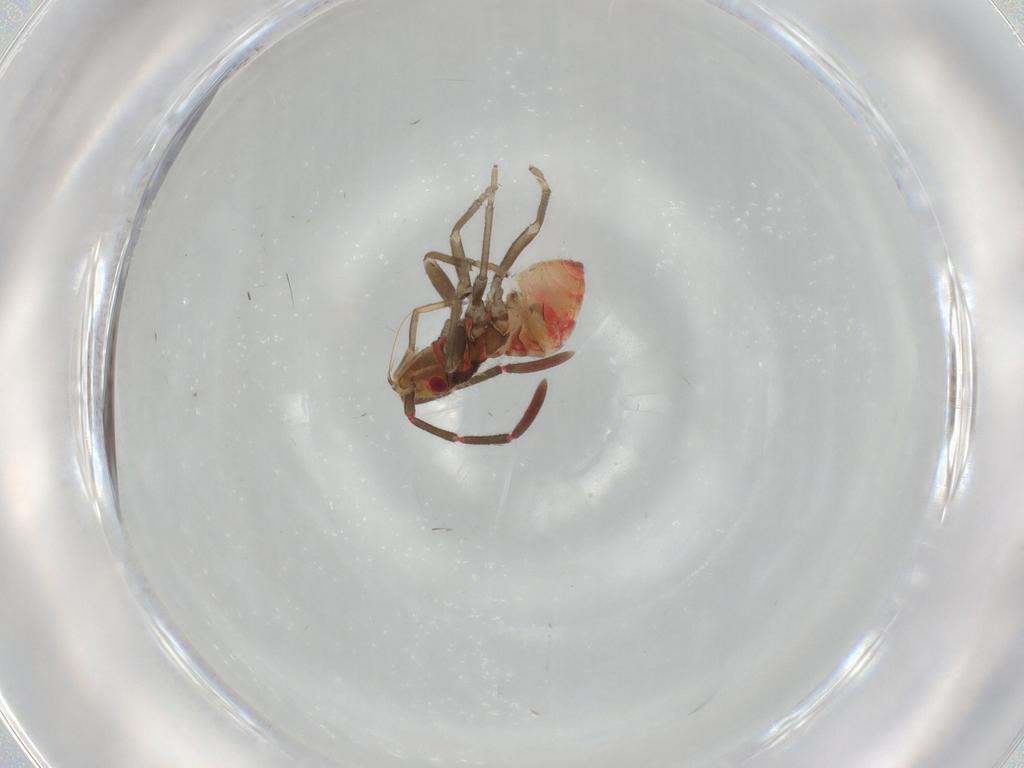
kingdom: Animalia
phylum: Arthropoda
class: Insecta
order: Hemiptera
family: Rhyparochromidae
